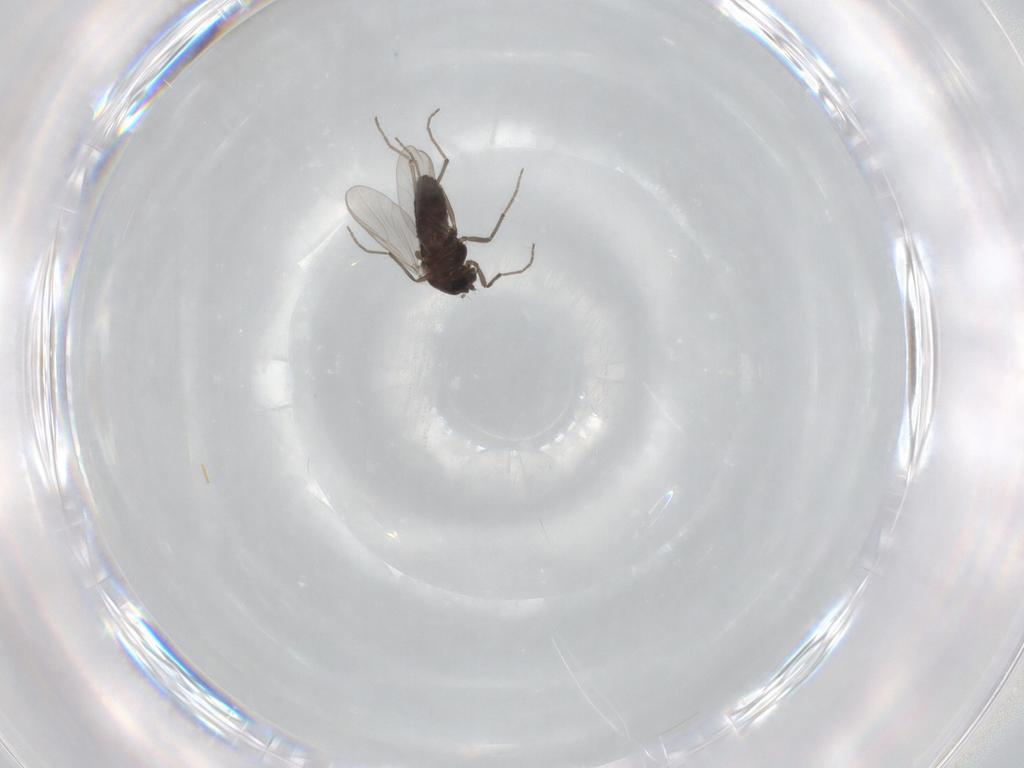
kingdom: Animalia
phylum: Arthropoda
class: Insecta
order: Diptera
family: Chironomidae
